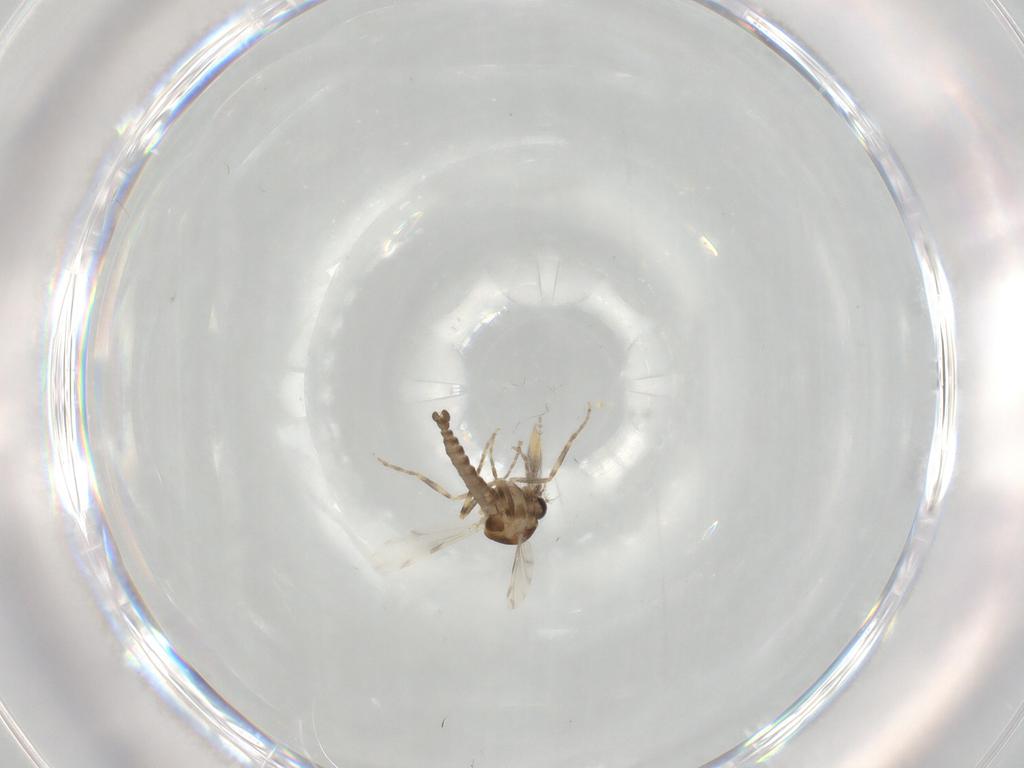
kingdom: Animalia
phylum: Arthropoda
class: Insecta
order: Diptera
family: Ceratopogonidae
